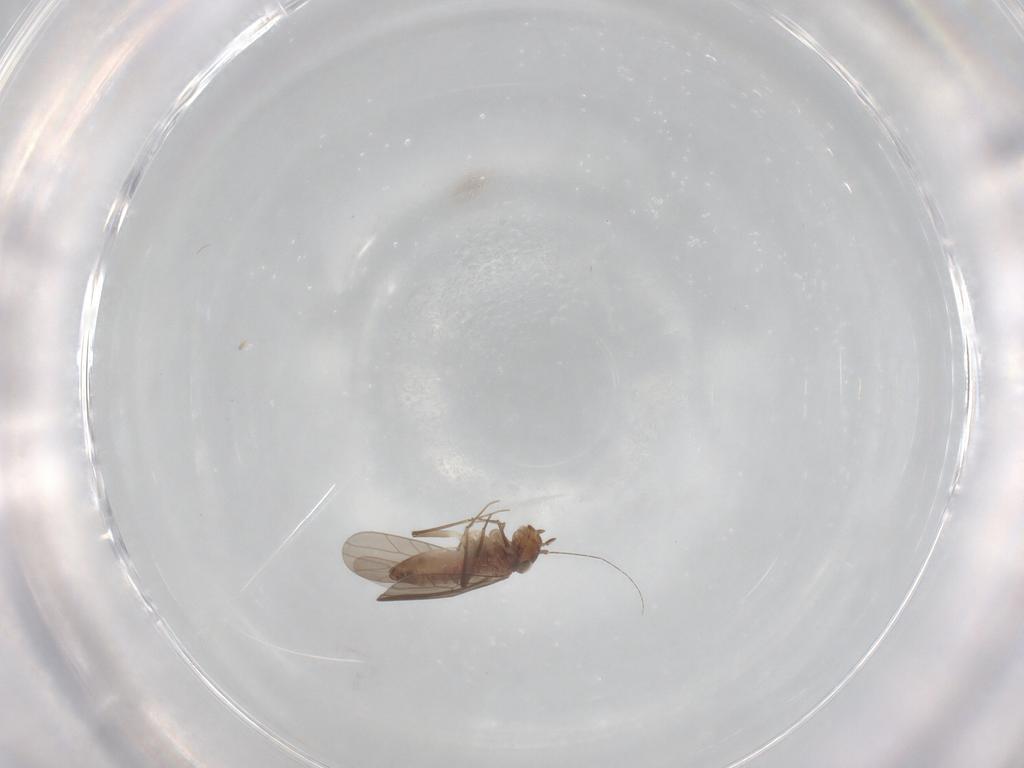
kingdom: Animalia
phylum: Arthropoda
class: Insecta
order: Psocodea
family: Lepidopsocidae
